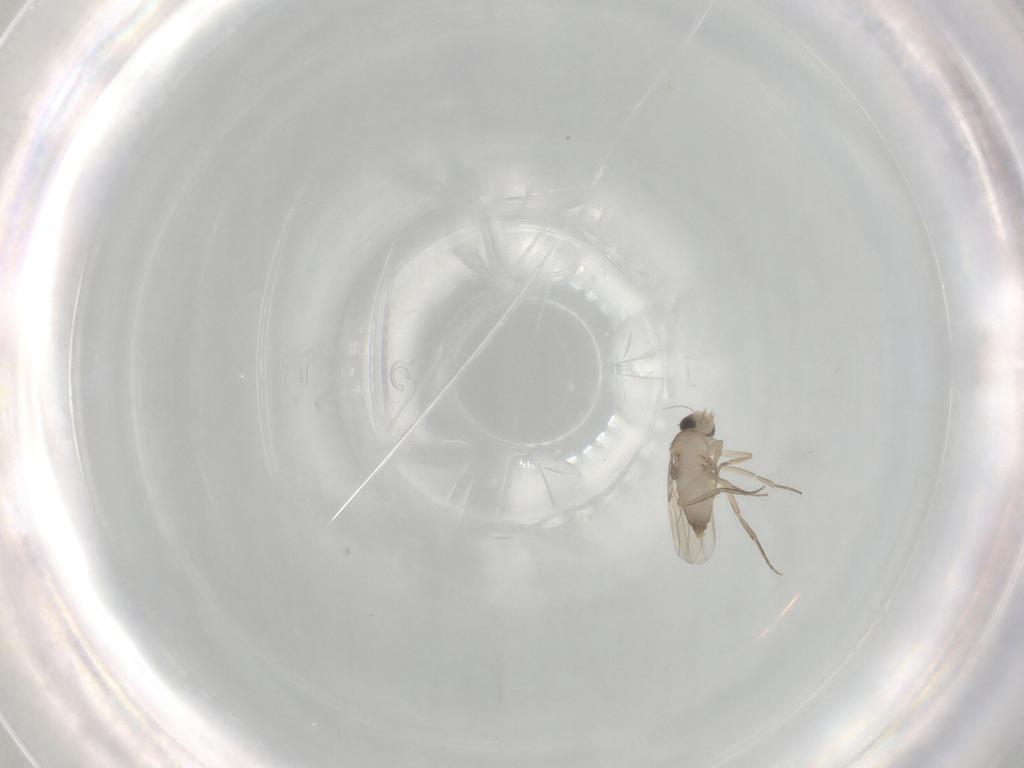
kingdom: Animalia
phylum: Arthropoda
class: Insecta
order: Diptera
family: Phoridae
